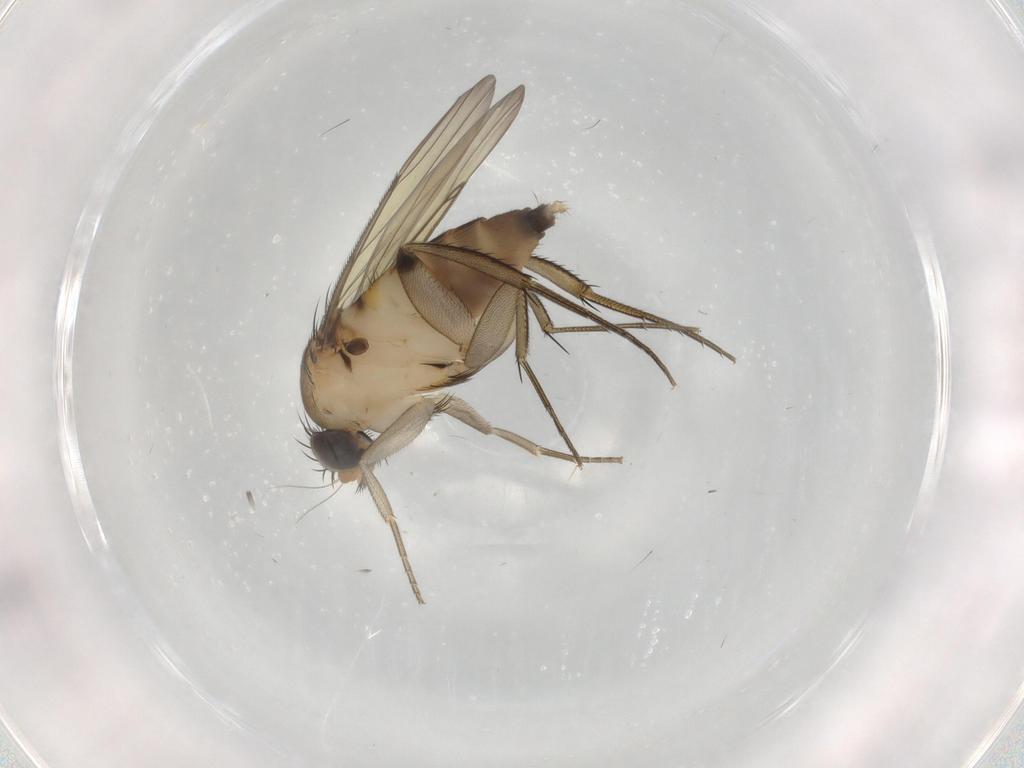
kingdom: Animalia
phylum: Arthropoda
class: Insecta
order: Diptera
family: Phoridae
